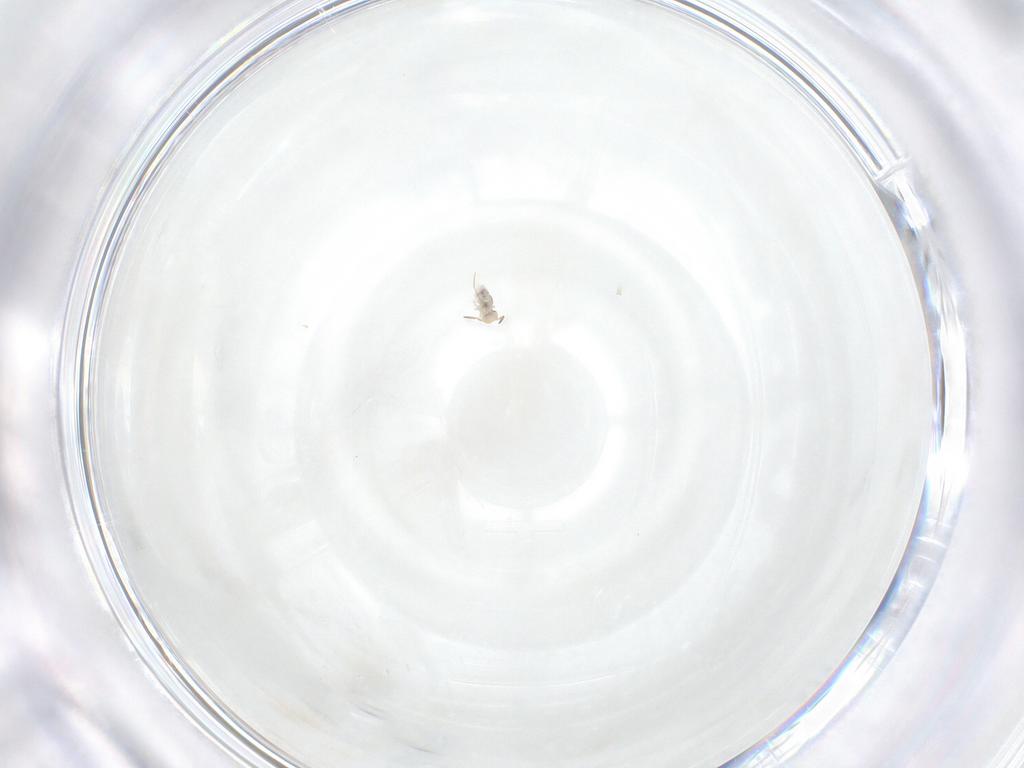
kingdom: Animalia
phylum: Arthropoda
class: Collembola
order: Symphypleona
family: Bourletiellidae
